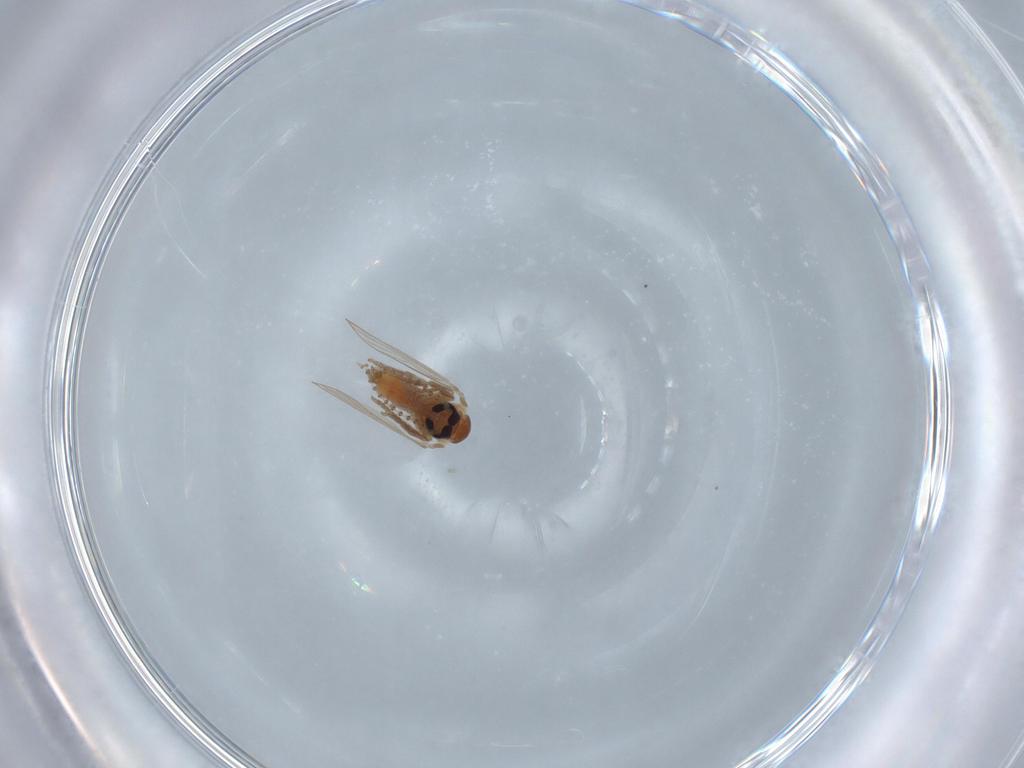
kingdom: Animalia
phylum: Arthropoda
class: Insecta
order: Diptera
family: Psychodidae
